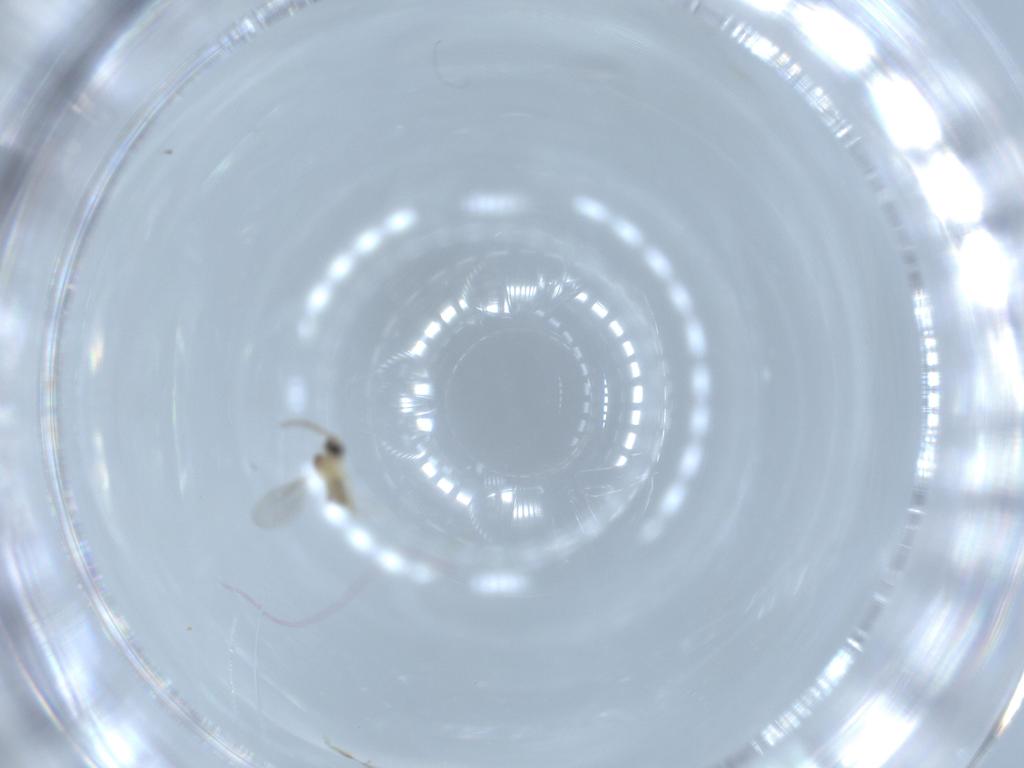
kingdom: Animalia
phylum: Arthropoda
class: Insecta
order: Diptera
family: Cecidomyiidae
